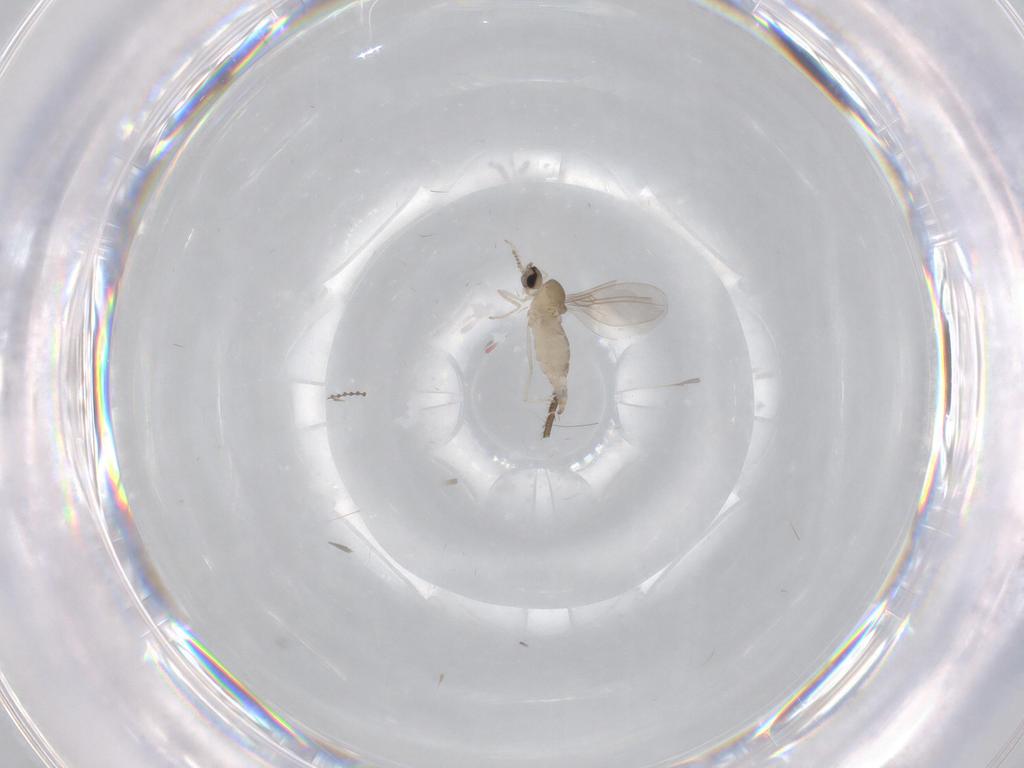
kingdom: Animalia
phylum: Arthropoda
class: Insecta
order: Diptera
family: Psychodidae
